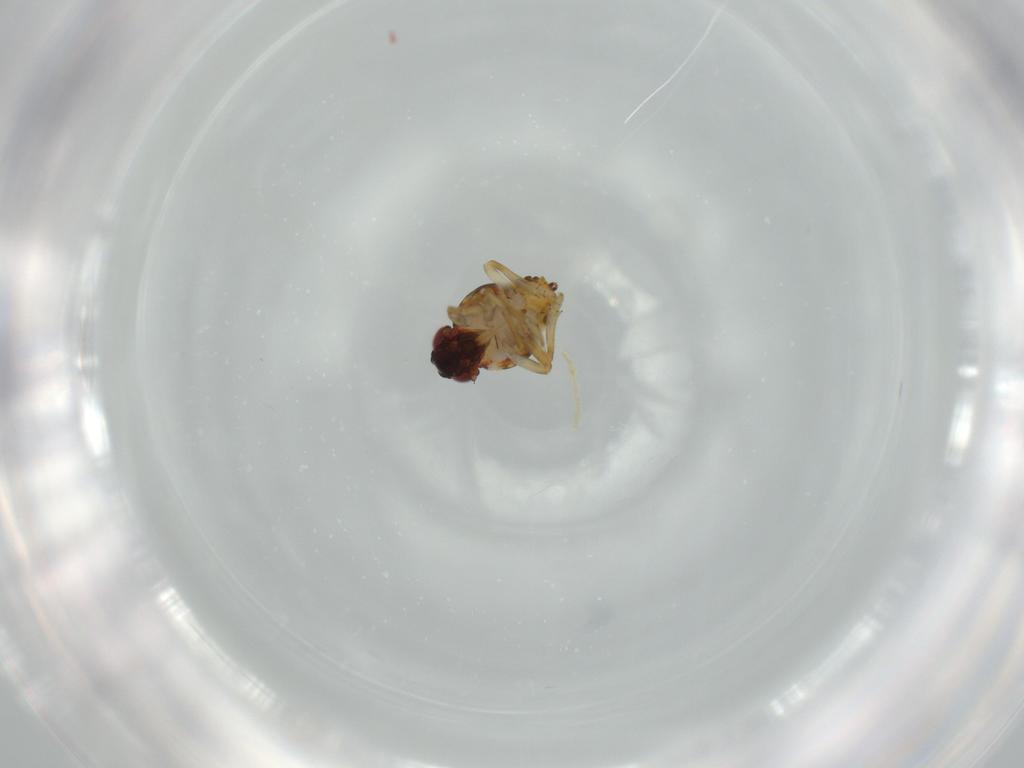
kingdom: Animalia
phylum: Arthropoda
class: Insecta
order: Hemiptera
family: Issidae
